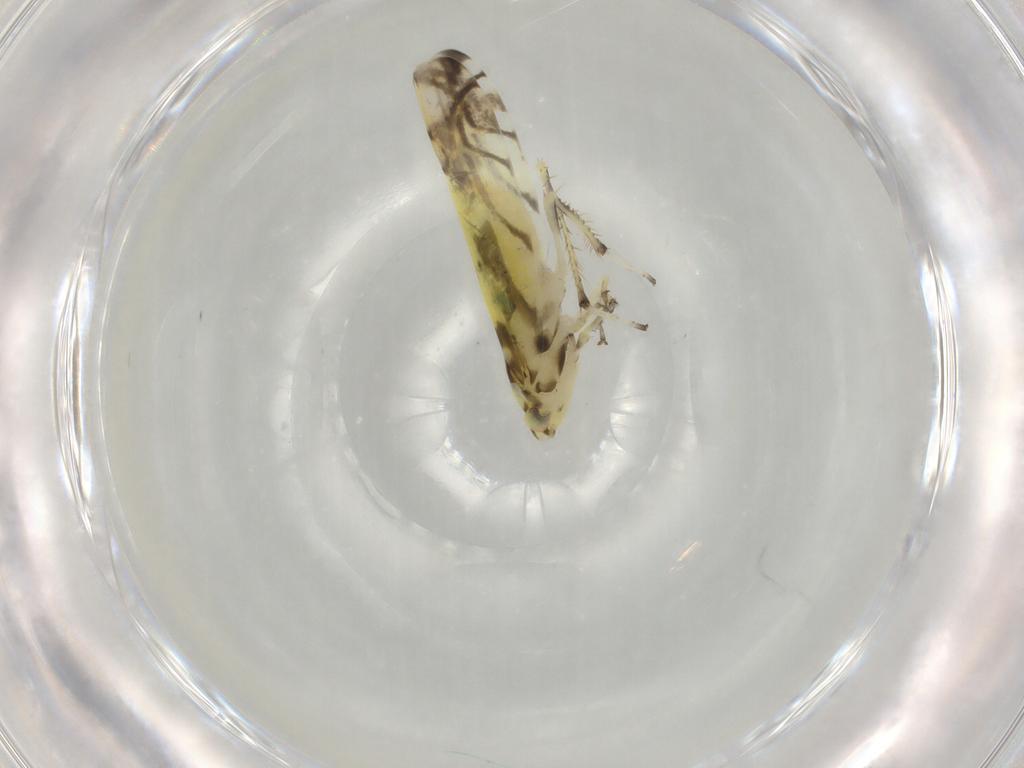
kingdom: Animalia
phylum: Arthropoda
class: Insecta
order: Hemiptera
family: Cicadellidae
